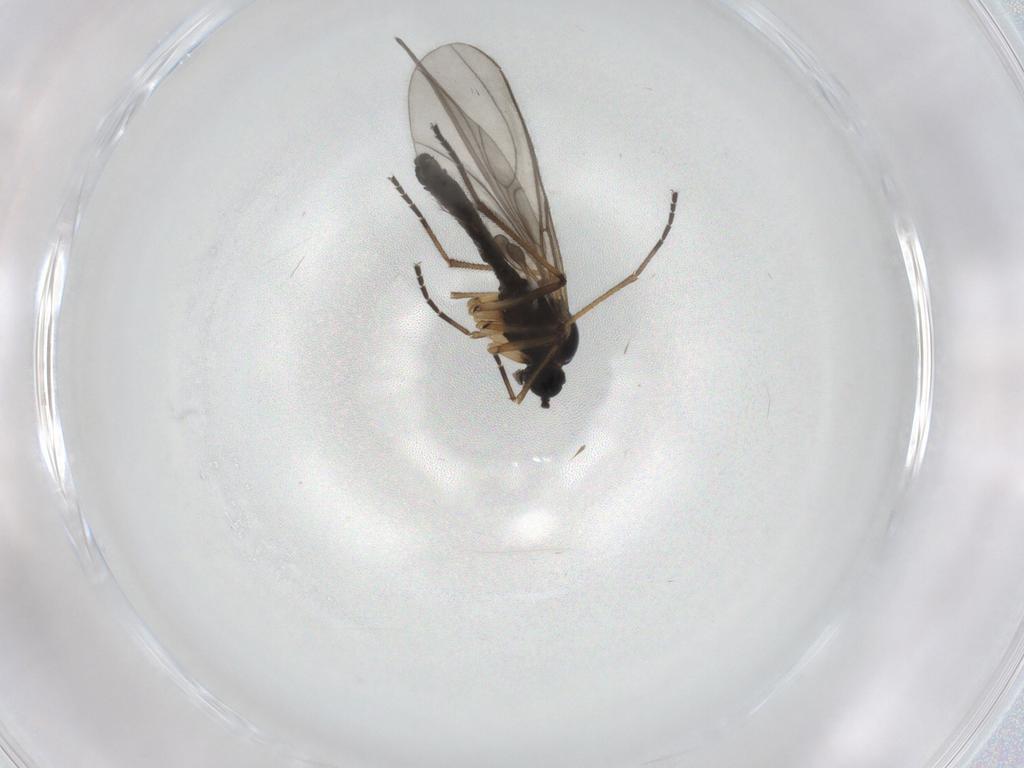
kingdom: Animalia
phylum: Arthropoda
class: Insecta
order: Diptera
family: Sciaridae
